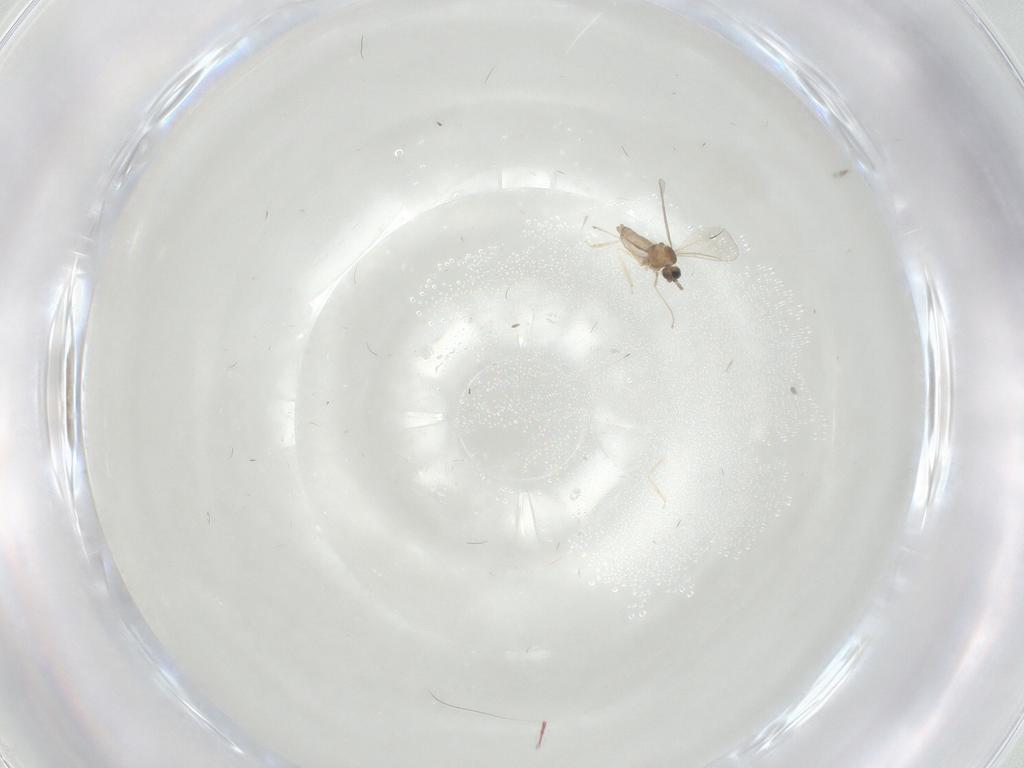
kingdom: Animalia
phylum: Arthropoda
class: Insecta
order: Diptera
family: Cecidomyiidae
